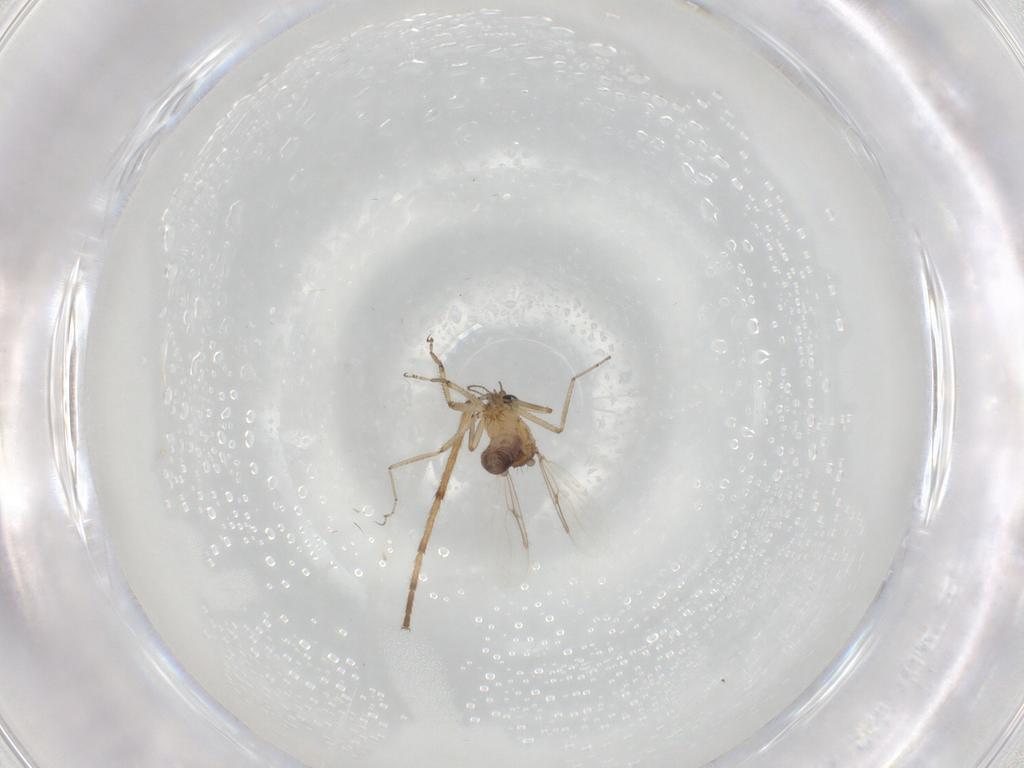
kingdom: Animalia
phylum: Arthropoda
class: Insecta
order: Diptera
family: Ceratopogonidae
